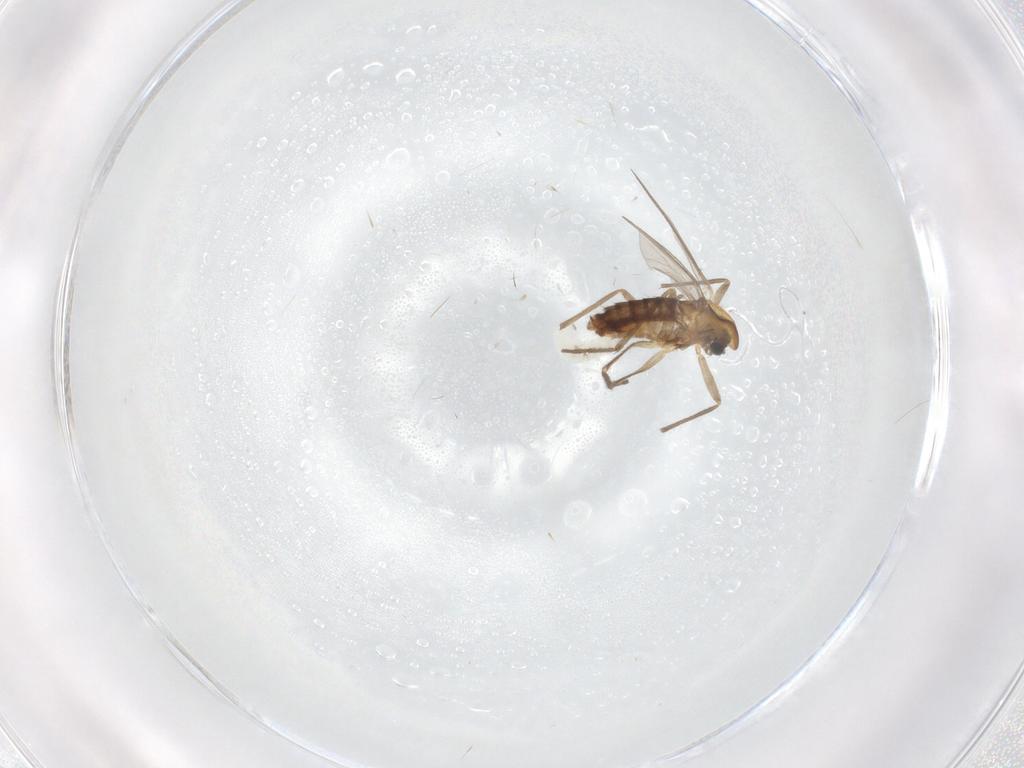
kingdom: Animalia
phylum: Arthropoda
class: Insecta
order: Diptera
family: Chironomidae
